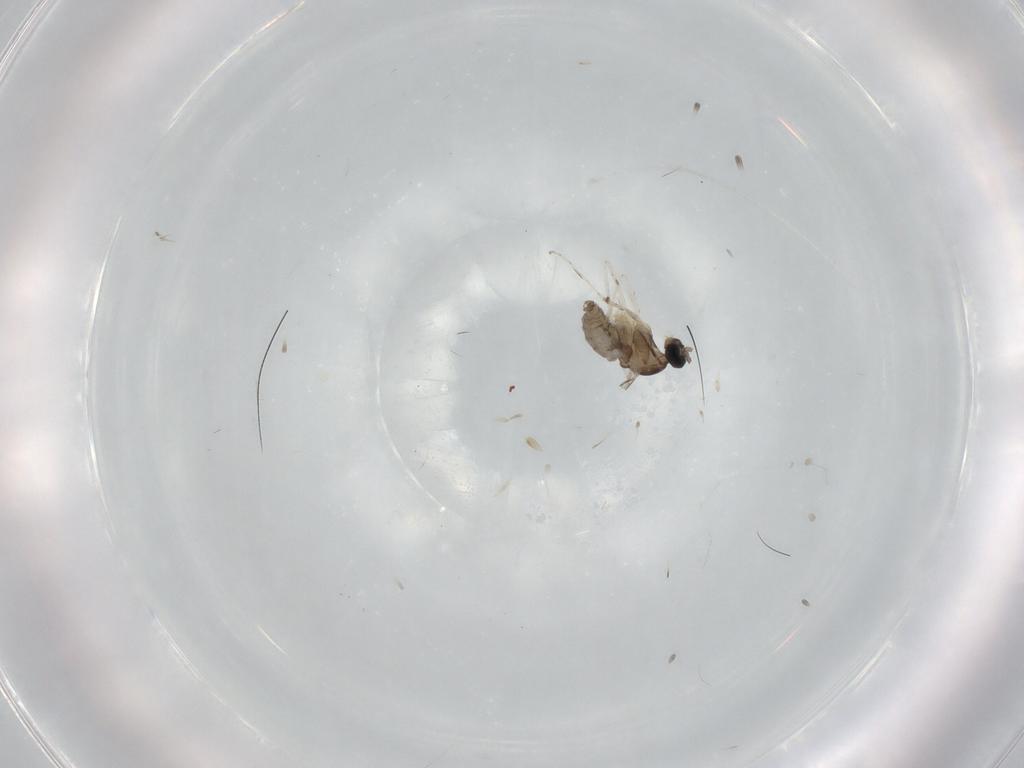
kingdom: Animalia
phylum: Arthropoda
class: Insecta
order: Diptera
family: Cecidomyiidae
